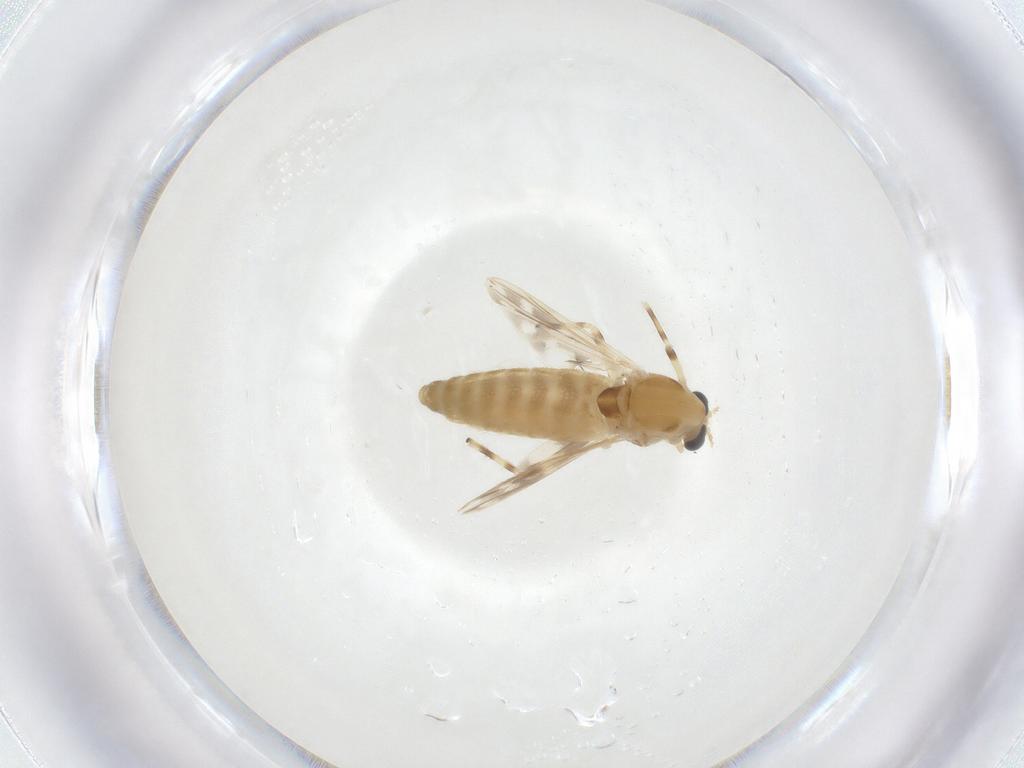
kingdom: Animalia
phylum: Arthropoda
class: Insecta
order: Diptera
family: Chironomidae
